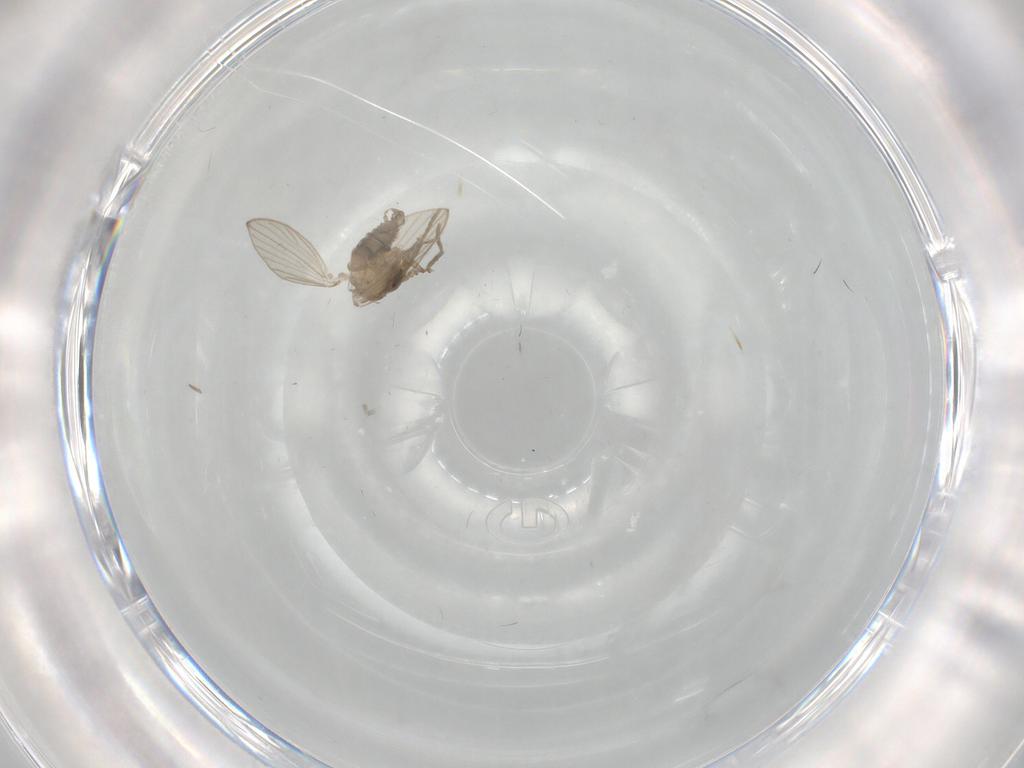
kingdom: Animalia
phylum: Arthropoda
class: Insecta
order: Diptera
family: Psychodidae
